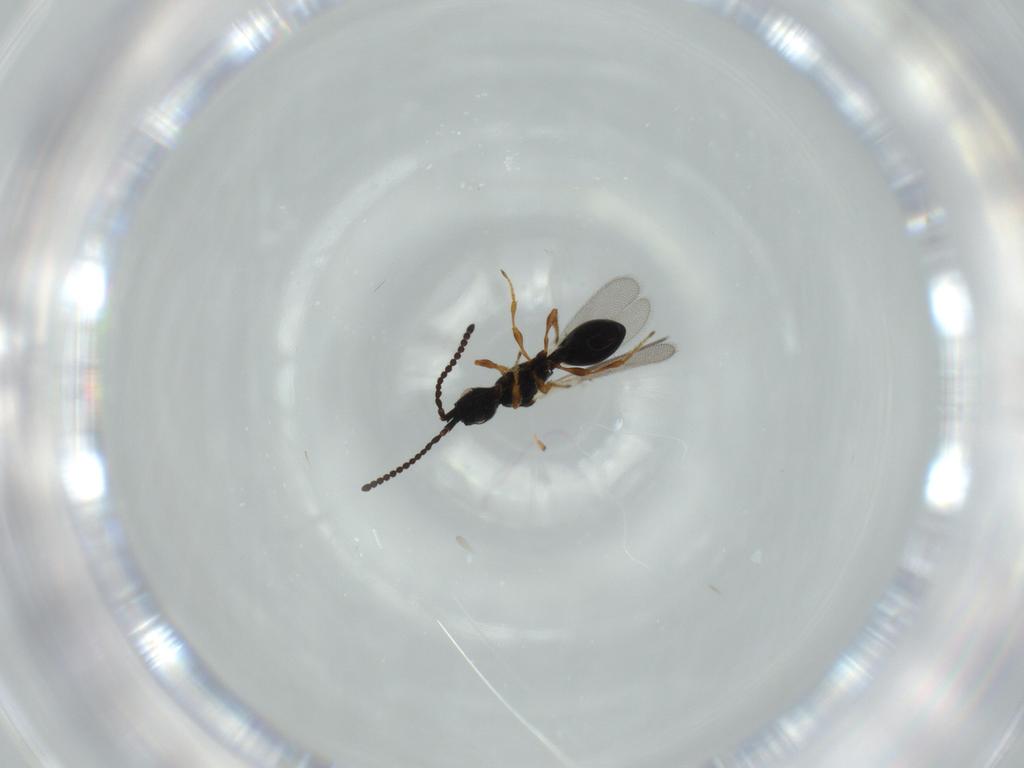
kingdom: Animalia
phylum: Arthropoda
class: Insecta
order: Hymenoptera
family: Diapriidae
